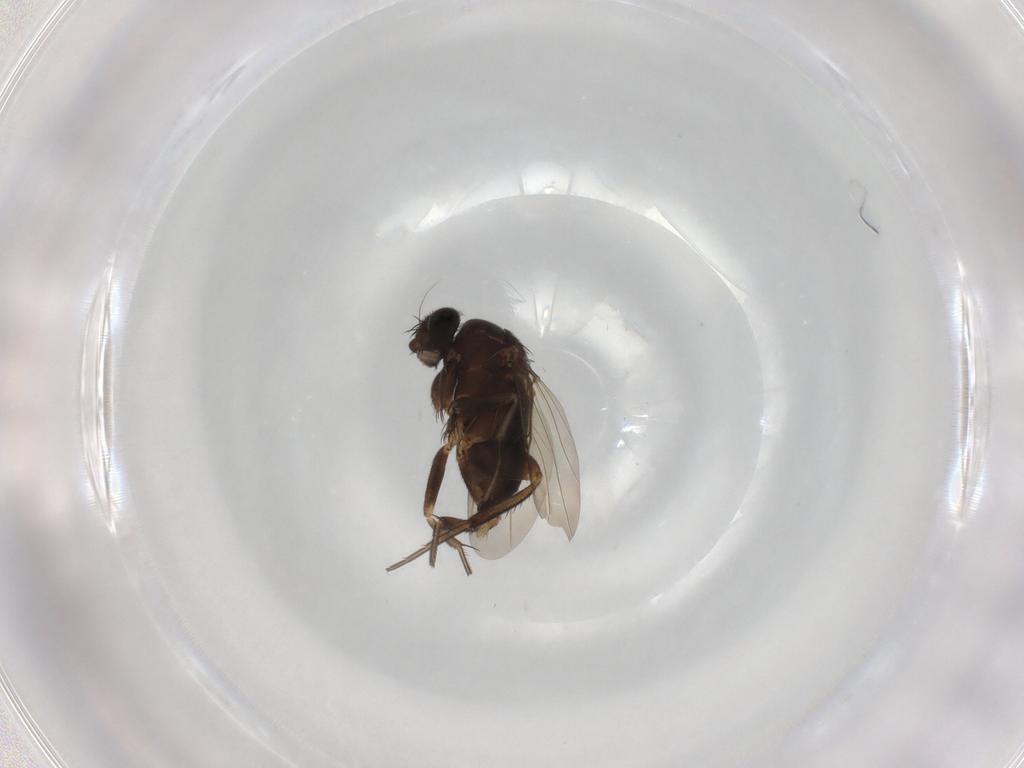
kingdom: Animalia
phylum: Arthropoda
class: Insecta
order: Diptera
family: Phoridae
